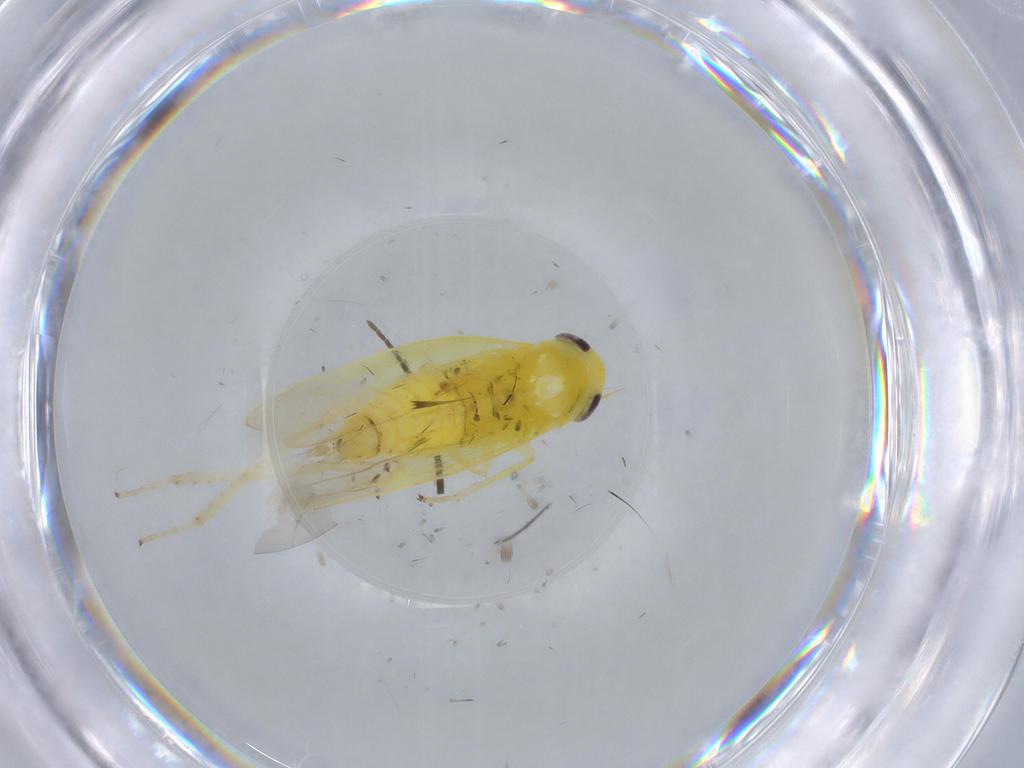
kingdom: Animalia
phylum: Arthropoda
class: Insecta
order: Hemiptera
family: Cicadellidae
